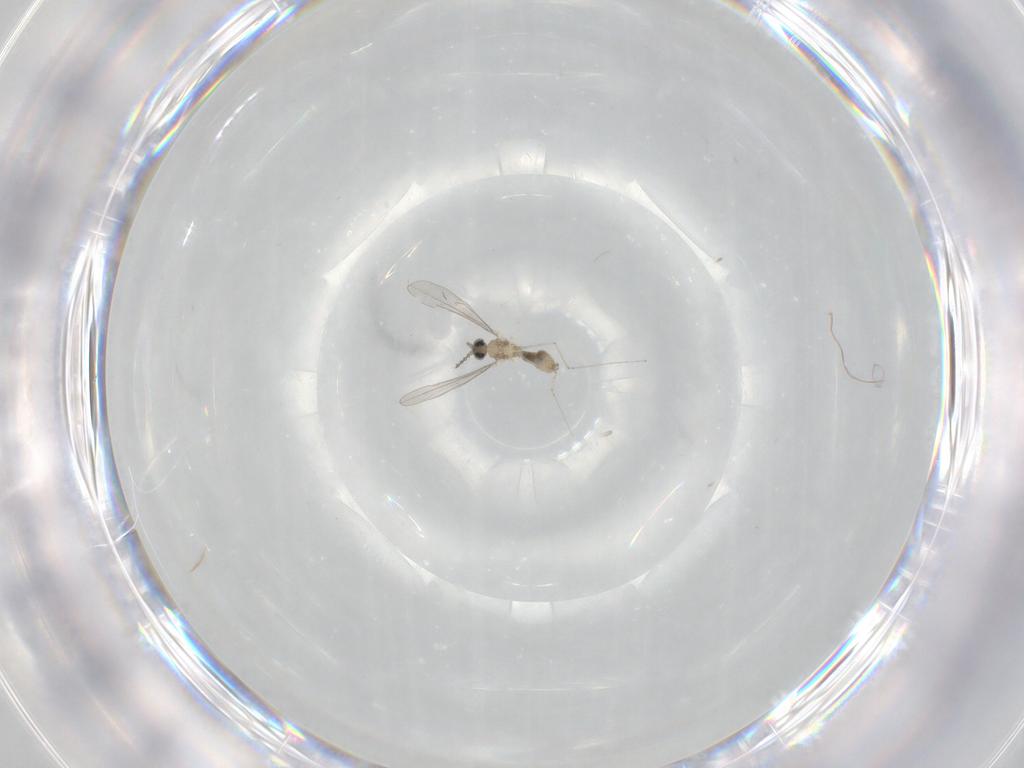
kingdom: Animalia
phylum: Arthropoda
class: Insecta
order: Diptera
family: Cecidomyiidae
